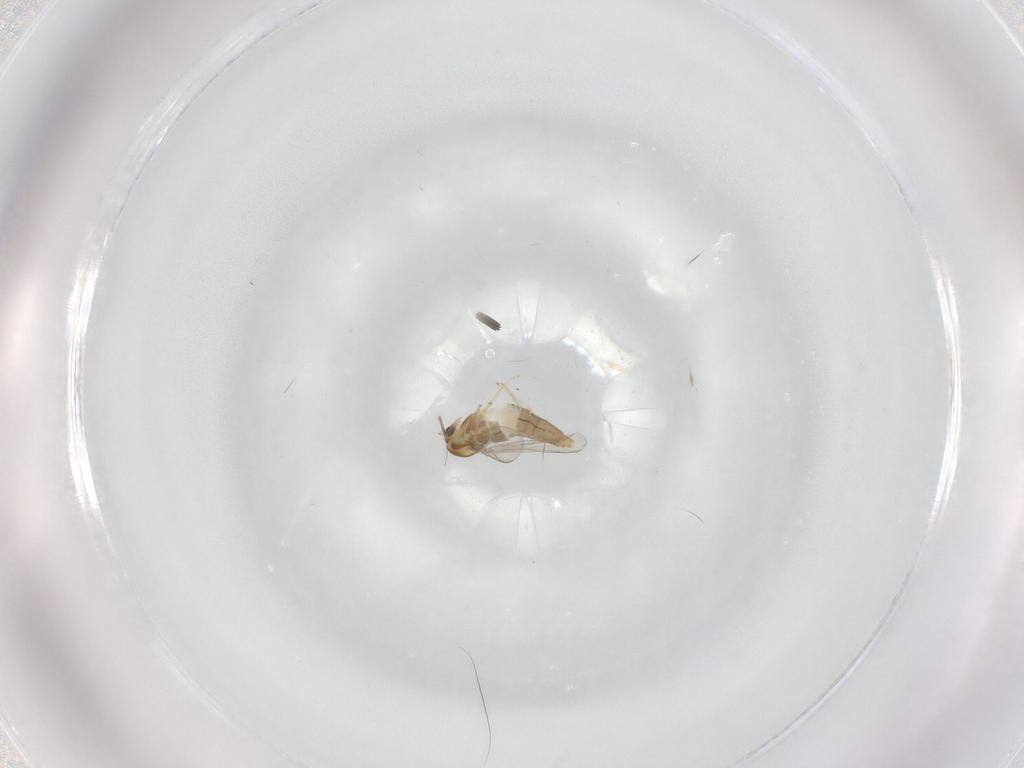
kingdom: Animalia
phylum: Arthropoda
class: Insecta
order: Diptera
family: Chironomidae
